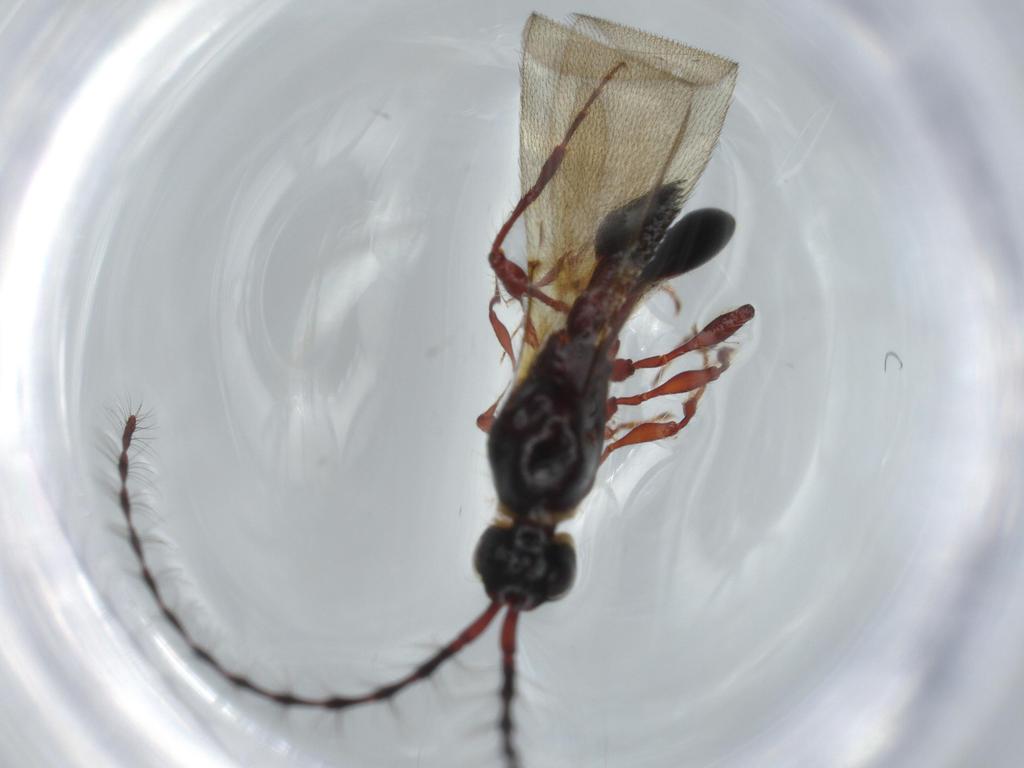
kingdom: Animalia
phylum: Arthropoda
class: Insecta
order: Hymenoptera
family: Diapriidae
